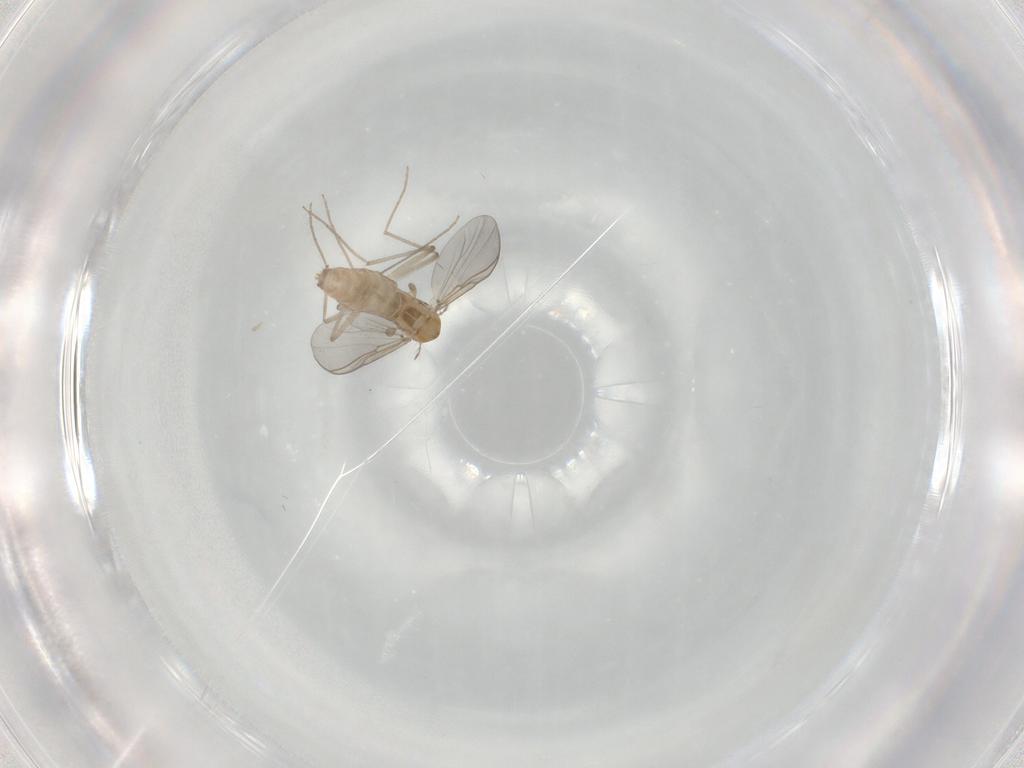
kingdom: Animalia
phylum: Arthropoda
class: Insecta
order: Diptera
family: Chironomidae
